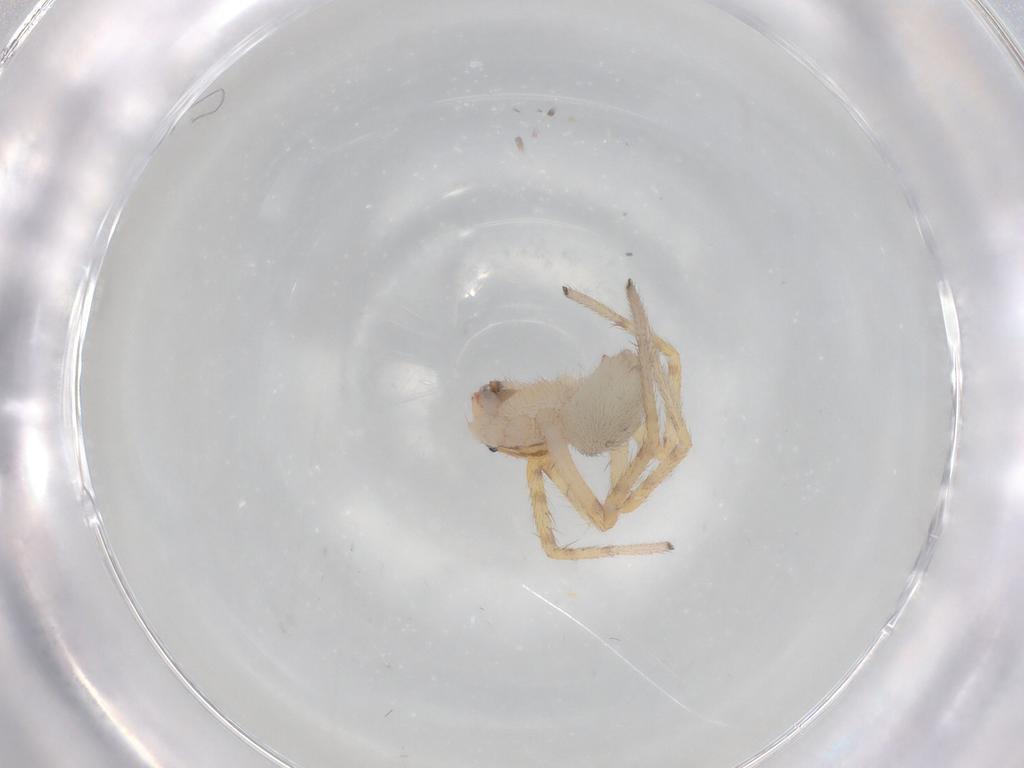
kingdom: Animalia
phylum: Arthropoda
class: Arachnida
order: Araneae
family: Corinnidae
